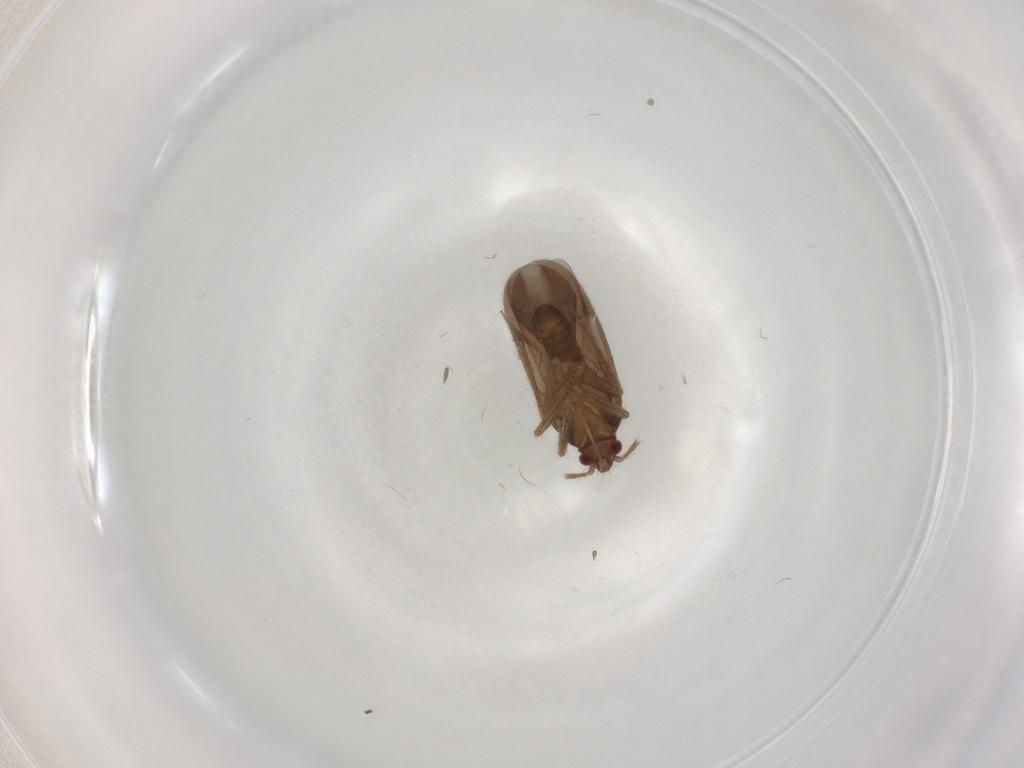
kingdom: Animalia
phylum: Arthropoda
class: Insecta
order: Hemiptera
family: Ceratocombidae
